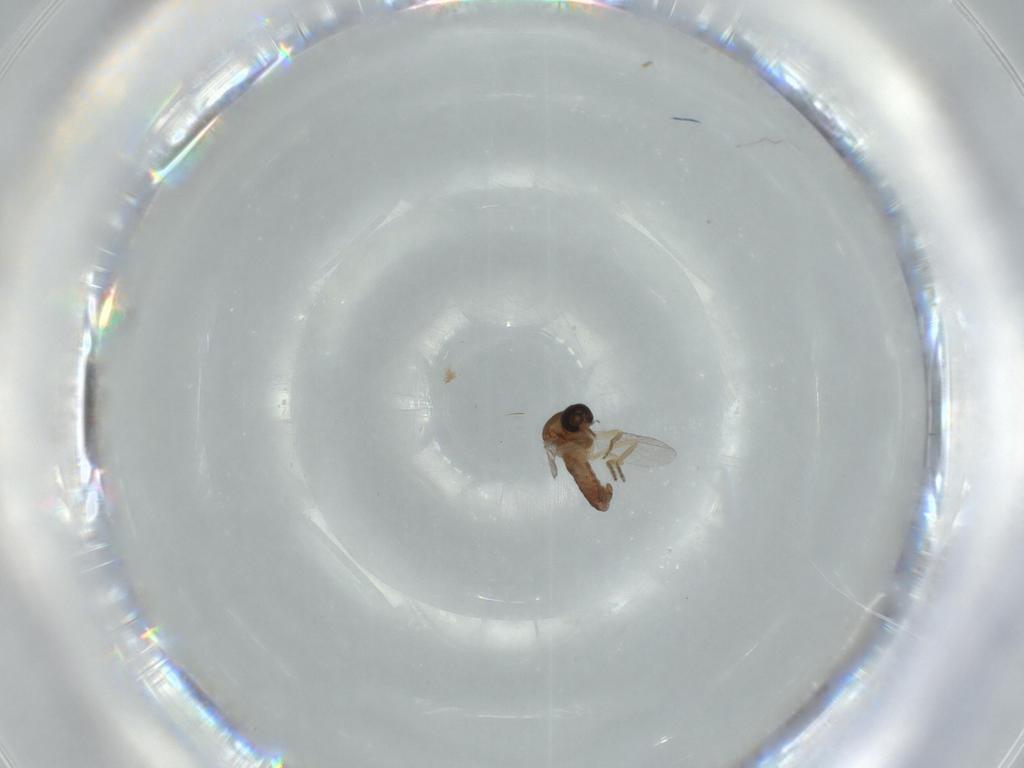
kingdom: Animalia
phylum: Arthropoda
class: Insecta
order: Diptera
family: Ceratopogonidae
